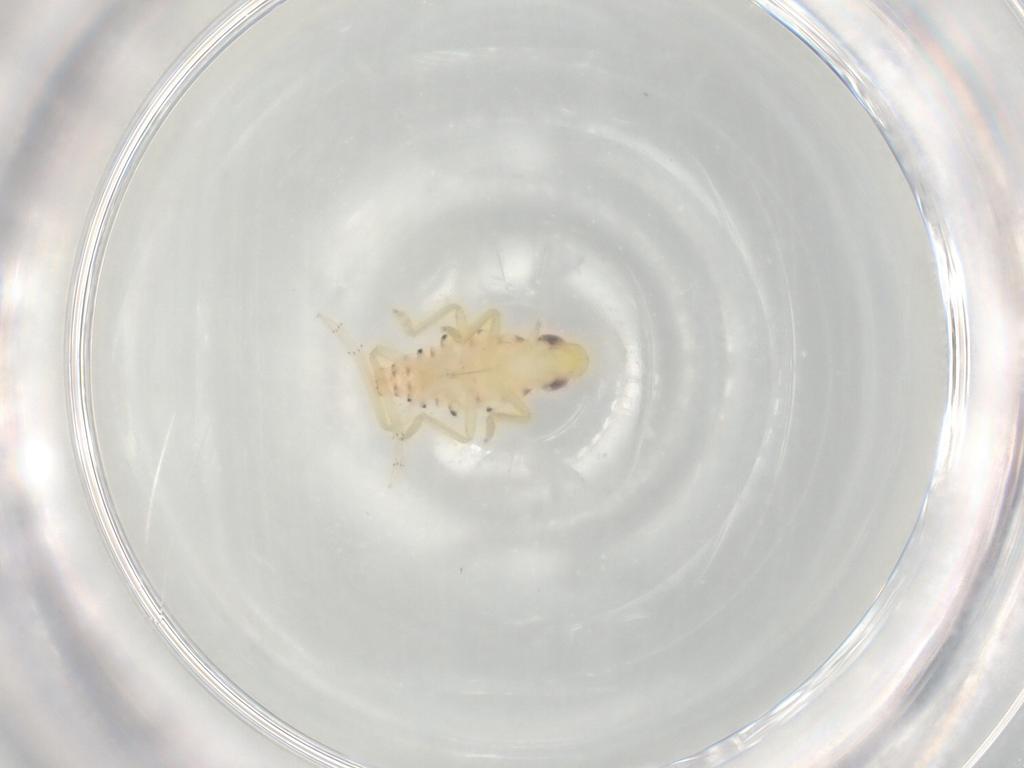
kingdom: Animalia
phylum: Arthropoda
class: Insecta
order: Hemiptera
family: Tropiduchidae
